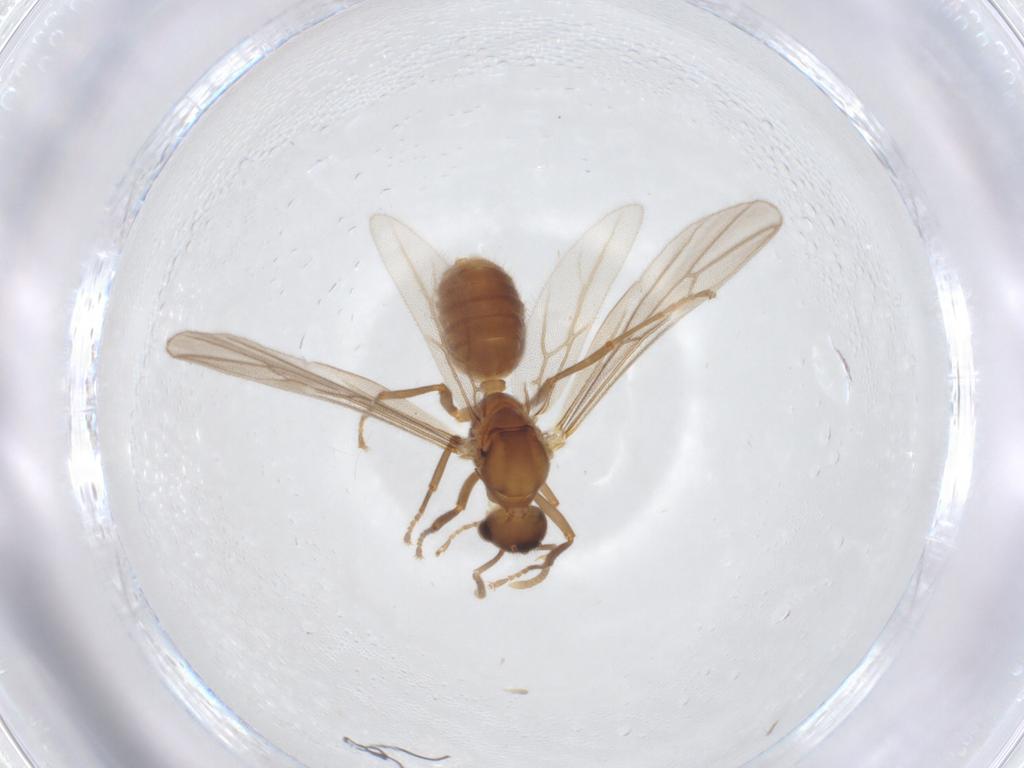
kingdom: Animalia
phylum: Arthropoda
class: Insecta
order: Hymenoptera
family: Formicidae
